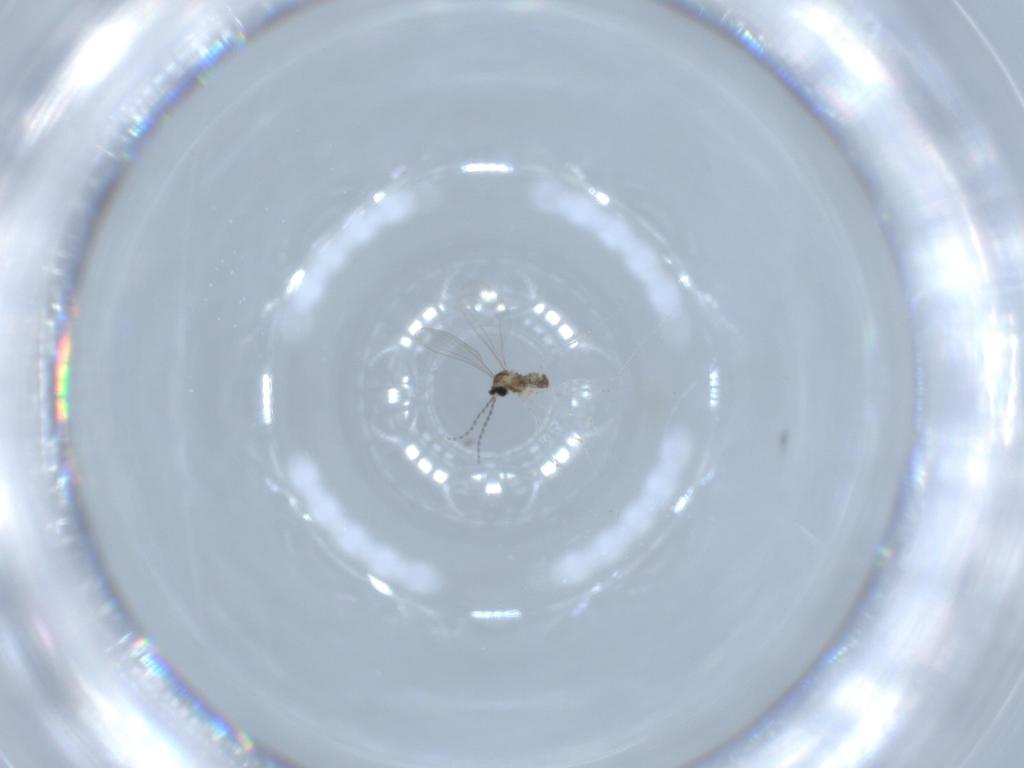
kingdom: Animalia
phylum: Arthropoda
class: Insecta
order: Diptera
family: Cecidomyiidae
